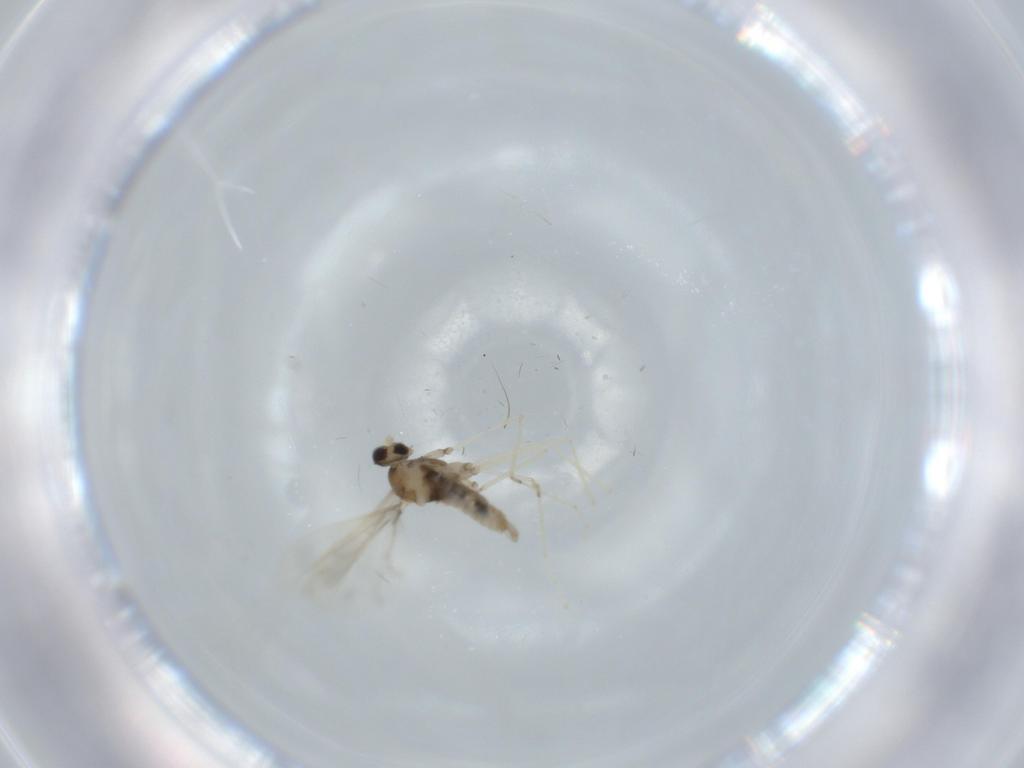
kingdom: Animalia
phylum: Arthropoda
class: Insecta
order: Diptera
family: Cecidomyiidae
